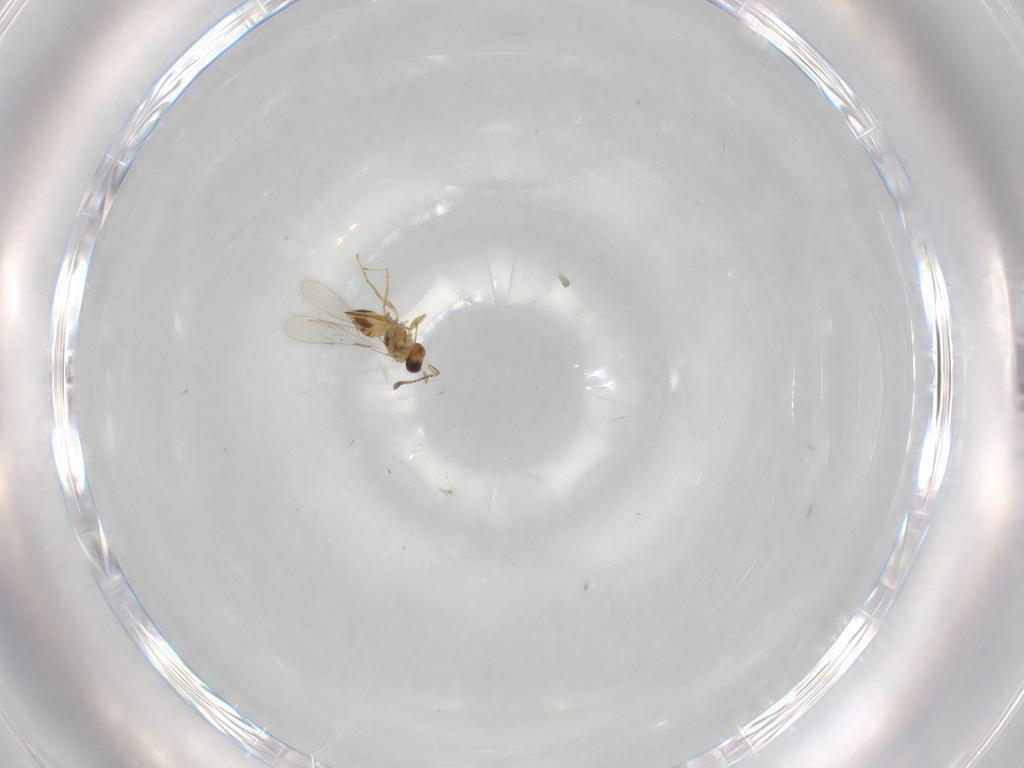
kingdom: Animalia
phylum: Arthropoda
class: Insecta
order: Hymenoptera
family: Mymaridae
